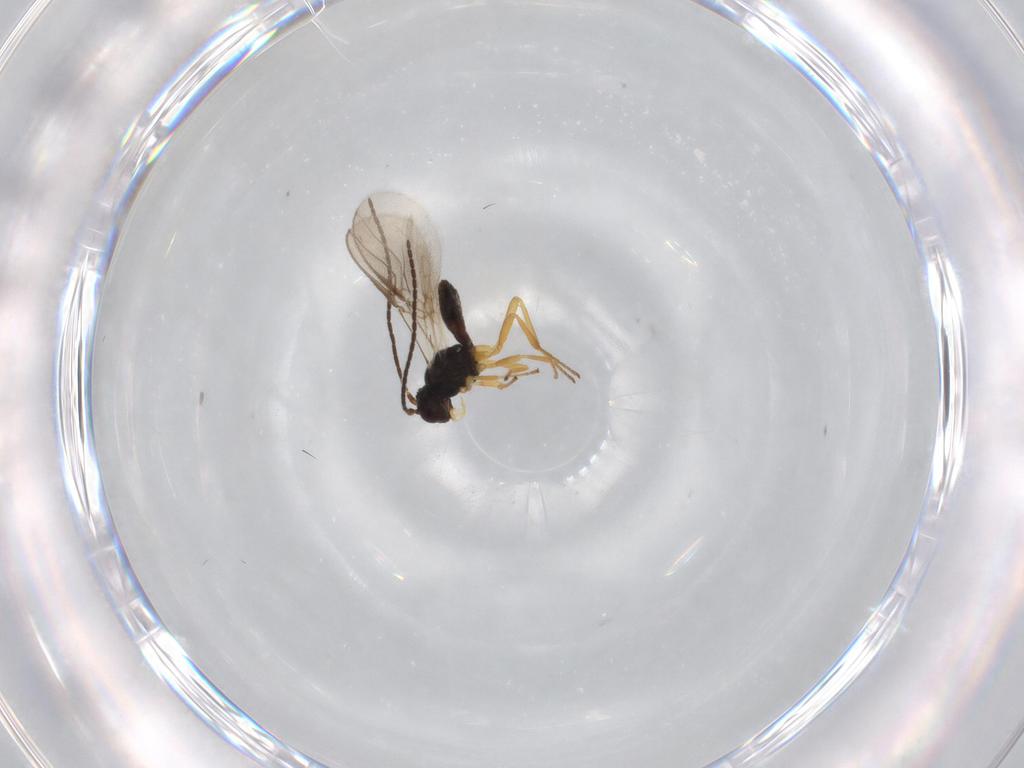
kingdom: Animalia
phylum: Arthropoda
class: Insecta
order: Hymenoptera
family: Braconidae
